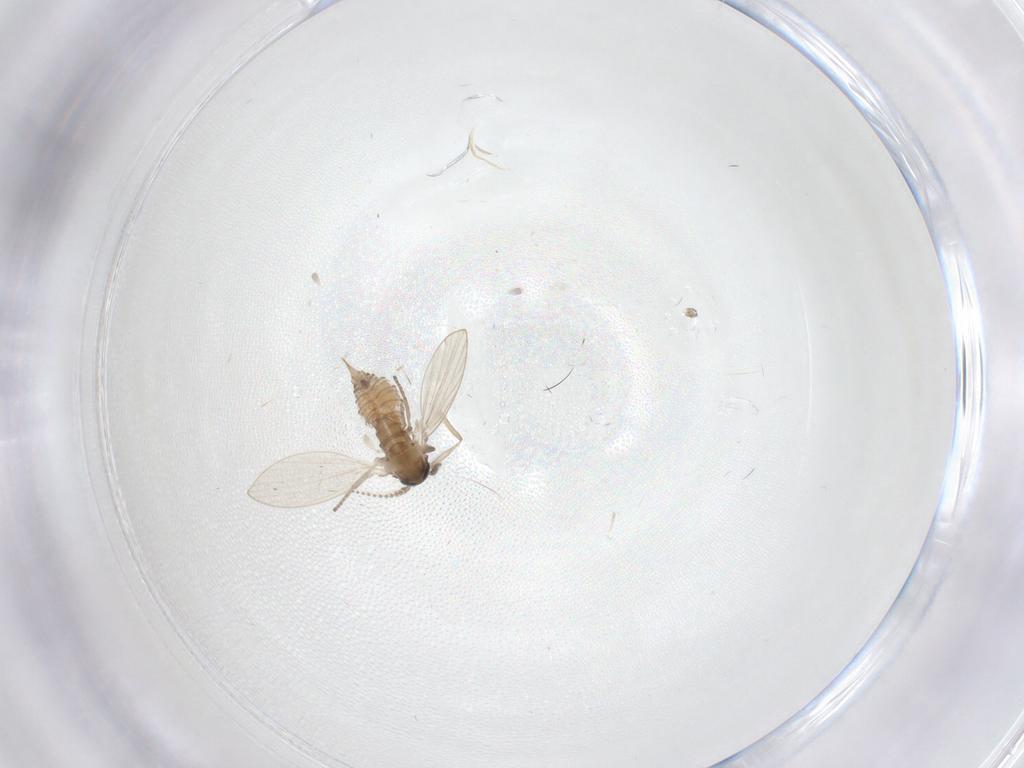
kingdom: Animalia
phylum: Arthropoda
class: Insecta
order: Diptera
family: Psychodidae
